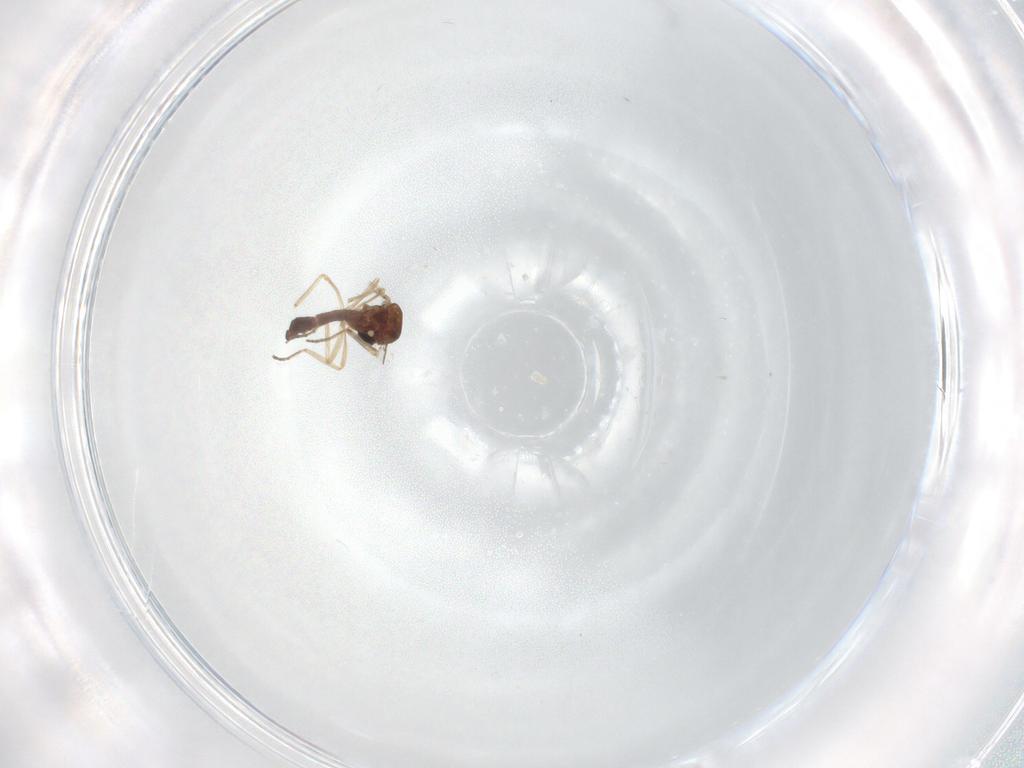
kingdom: Animalia
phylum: Arthropoda
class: Insecta
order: Diptera
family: Ceratopogonidae
